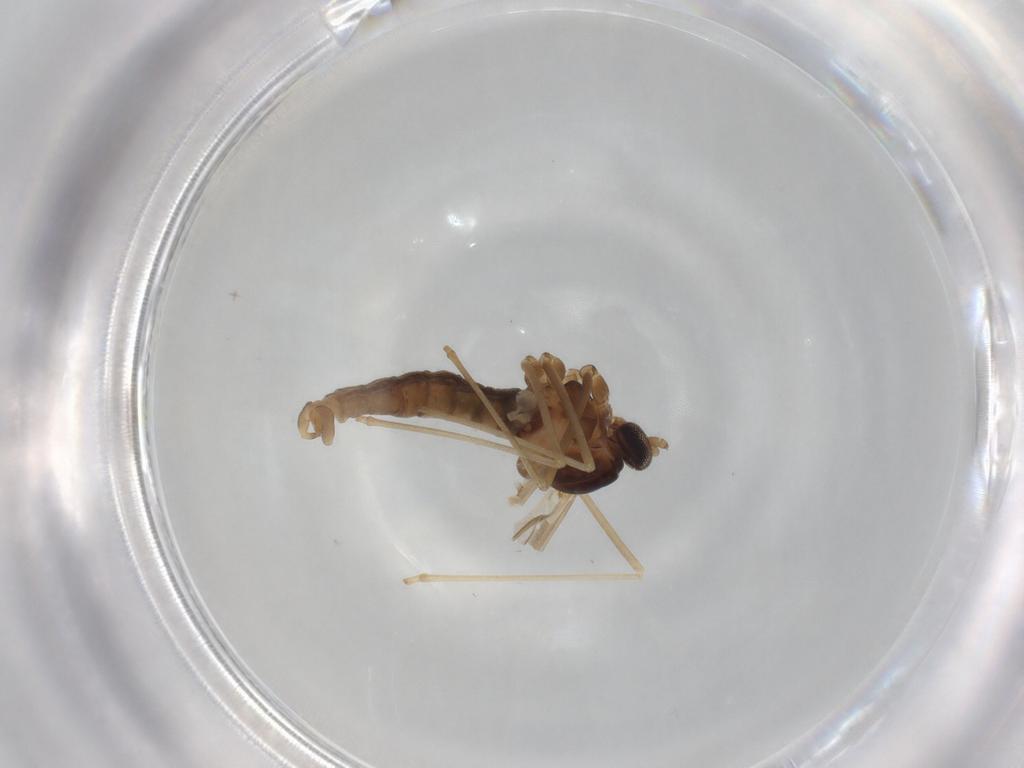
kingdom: Animalia
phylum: Arthropoda
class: Insecta
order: Diptera
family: Cecidomyiidae
